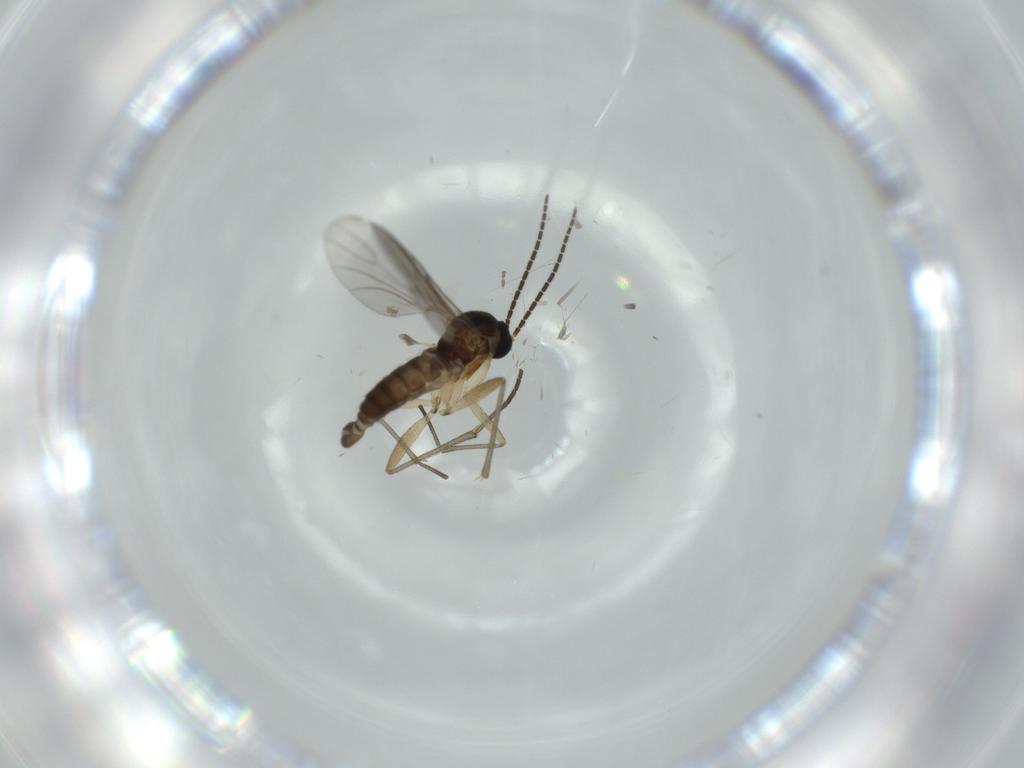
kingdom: Animalia
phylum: Arthropoda
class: Insecta
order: Diptera
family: Sciaridae
